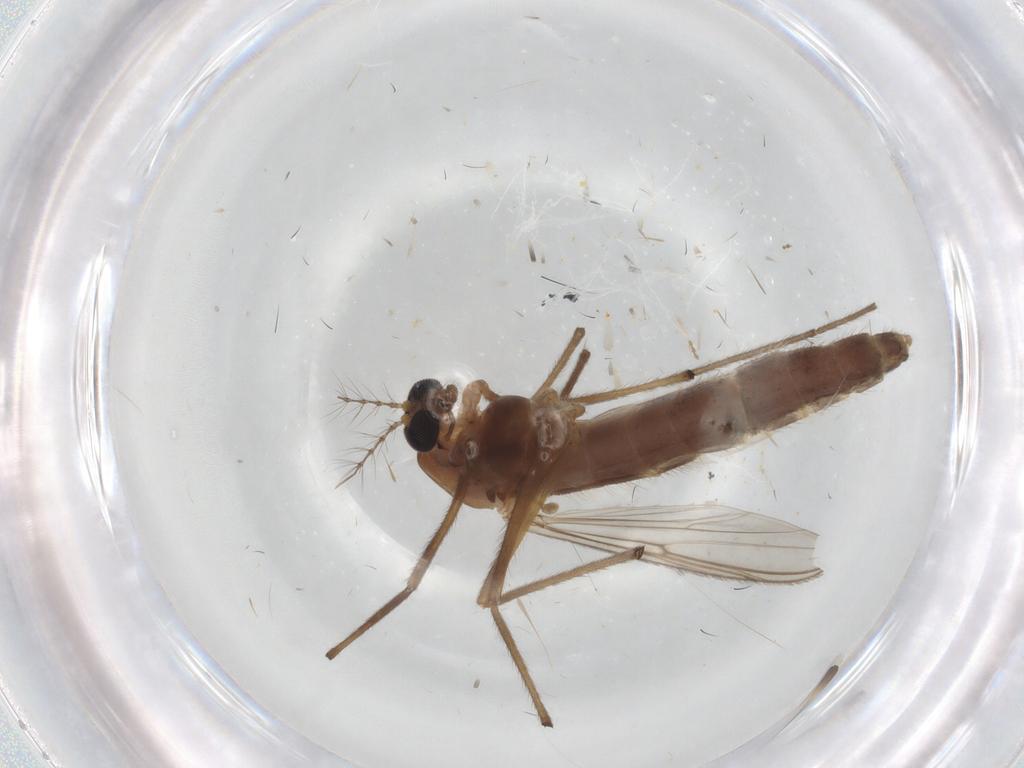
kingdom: Animalia
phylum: Arthropoda
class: Insecta
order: Diptera
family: Chironomidae
